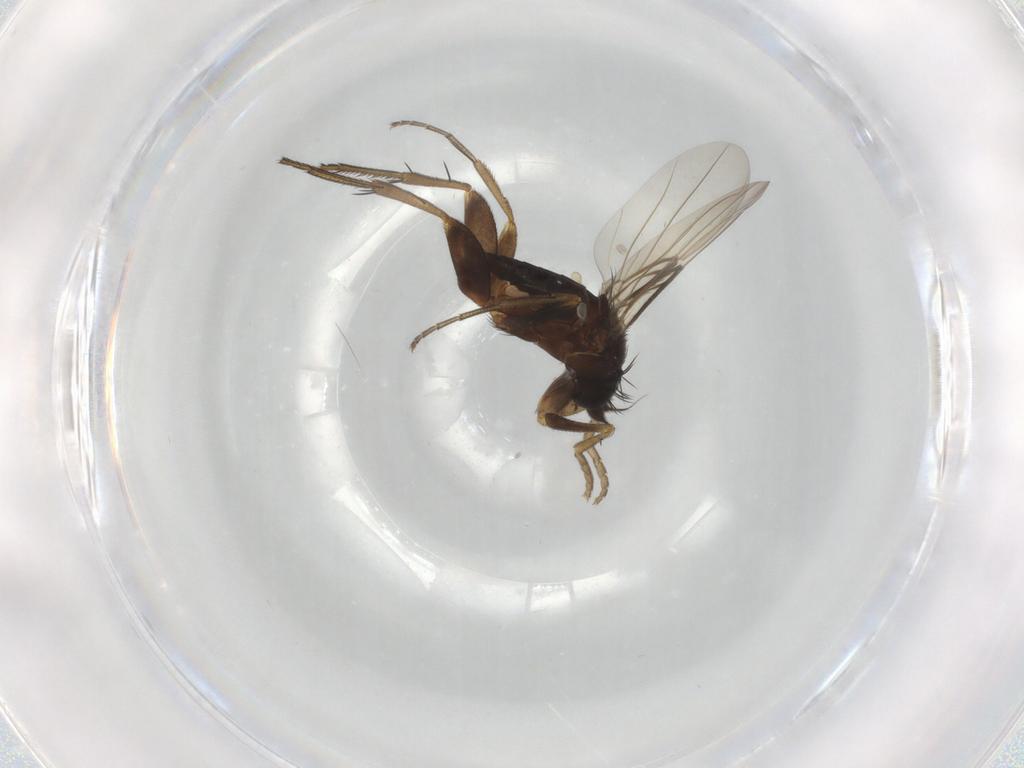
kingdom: Animalia
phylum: Arthropoda
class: Insecta
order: Diptera
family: Phoridae
